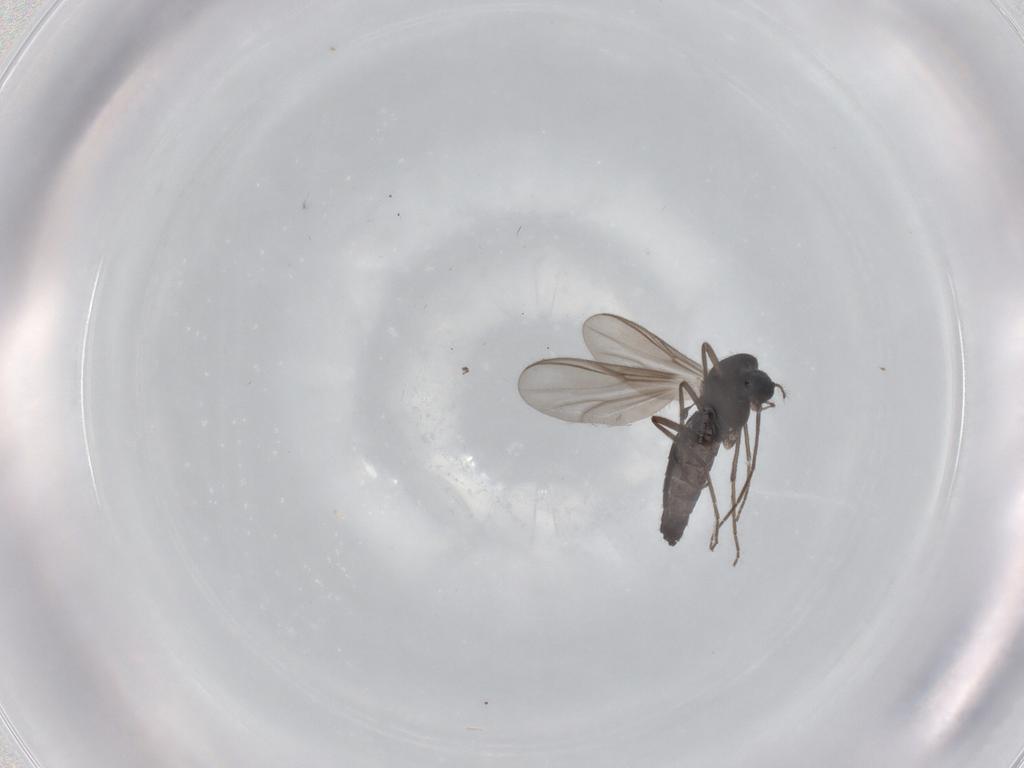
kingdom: Animalia
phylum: Arthropoda
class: Insecta
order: Diptera
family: Chironomidae
